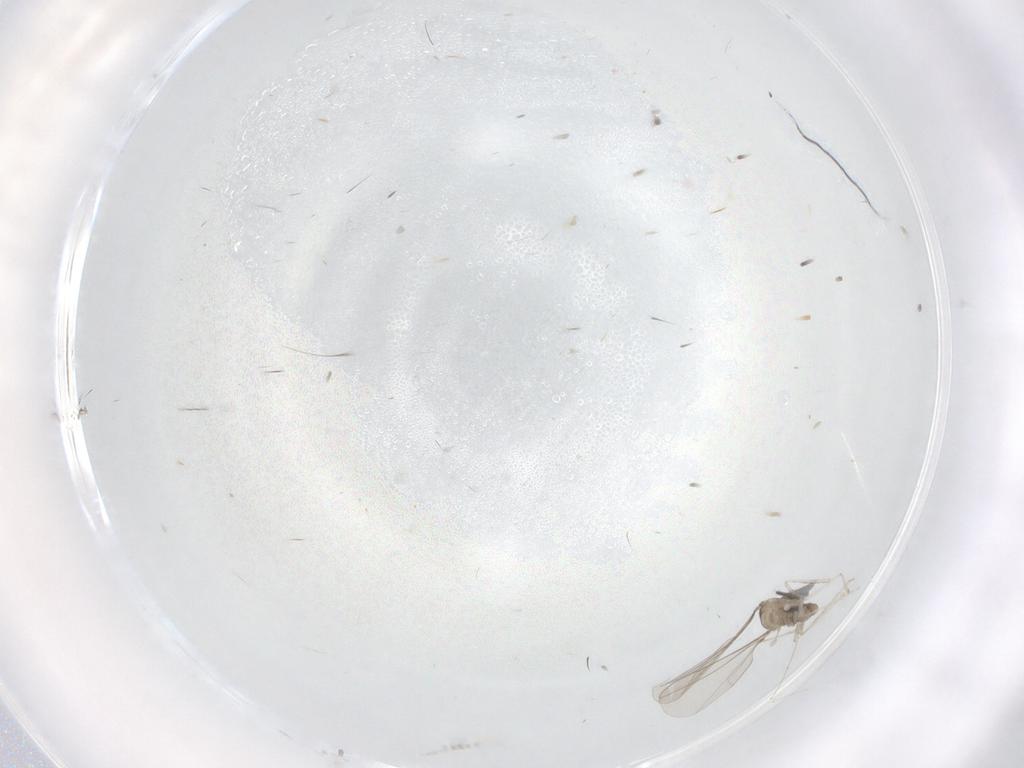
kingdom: Animalia
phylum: Arthropoda
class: Insecta
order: Diptera
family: Cecidomyiidae
